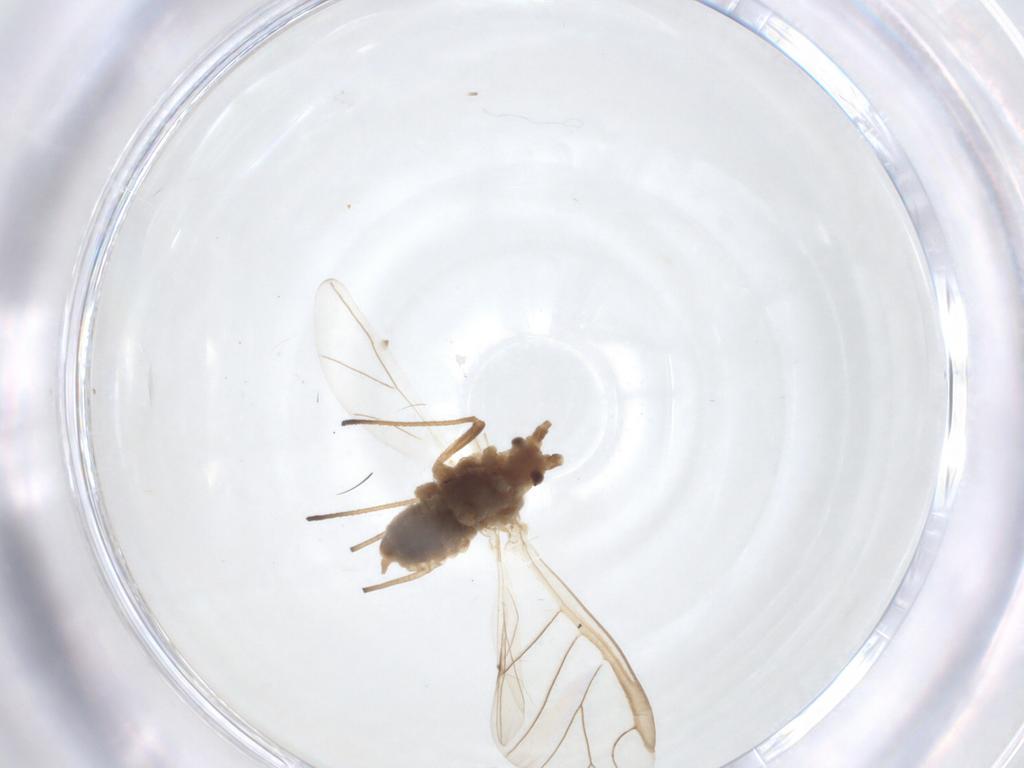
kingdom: Animalia
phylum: Arthropoda
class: Insecta
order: Hemiptera
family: Aphididae
